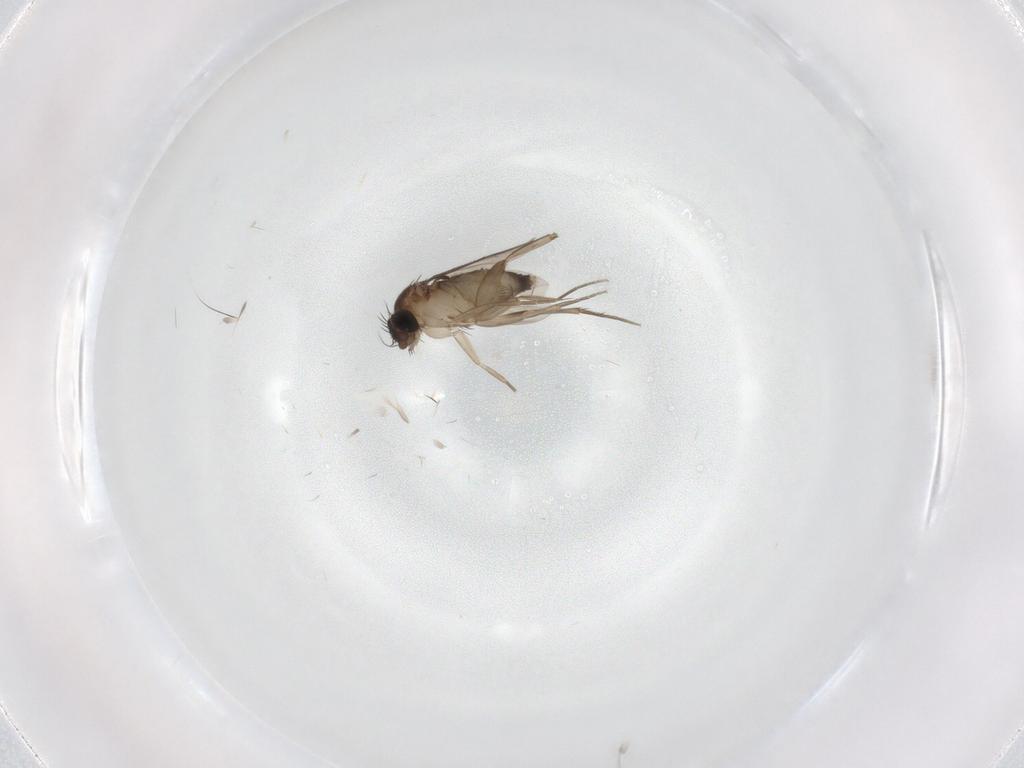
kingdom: Animalia
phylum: Arthropoda
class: Insecta
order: Diptera
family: Phoridae
